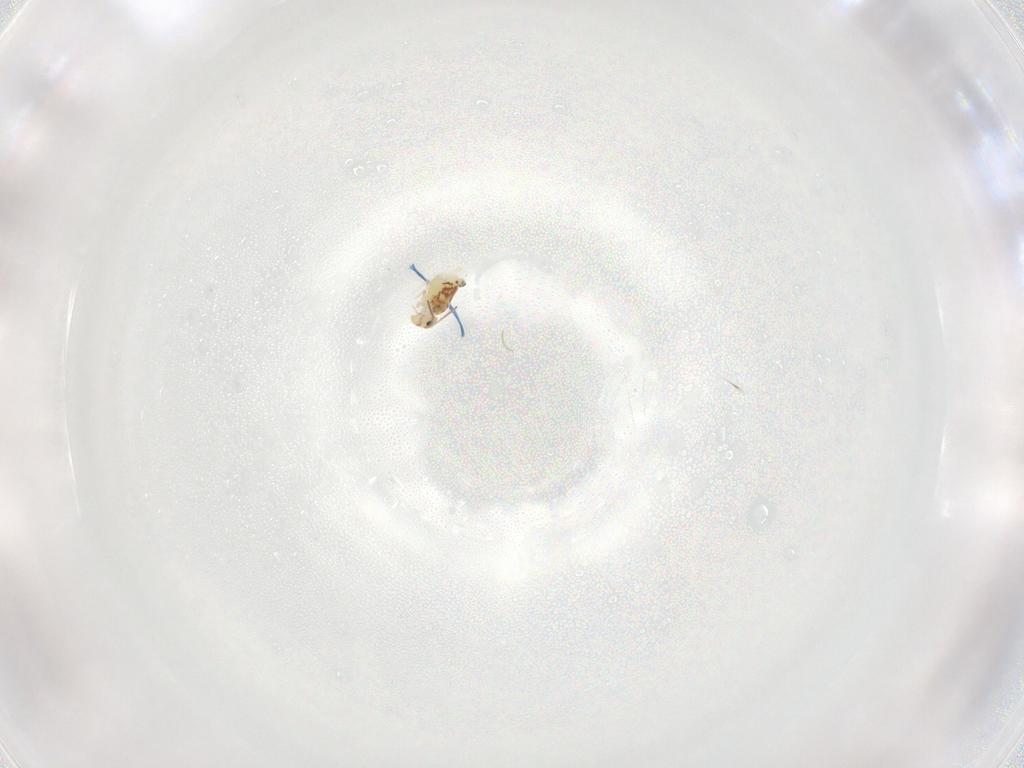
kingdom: Animalia
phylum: Arthropoda
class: Collembola
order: Symphypleona
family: Bourletiellidae
